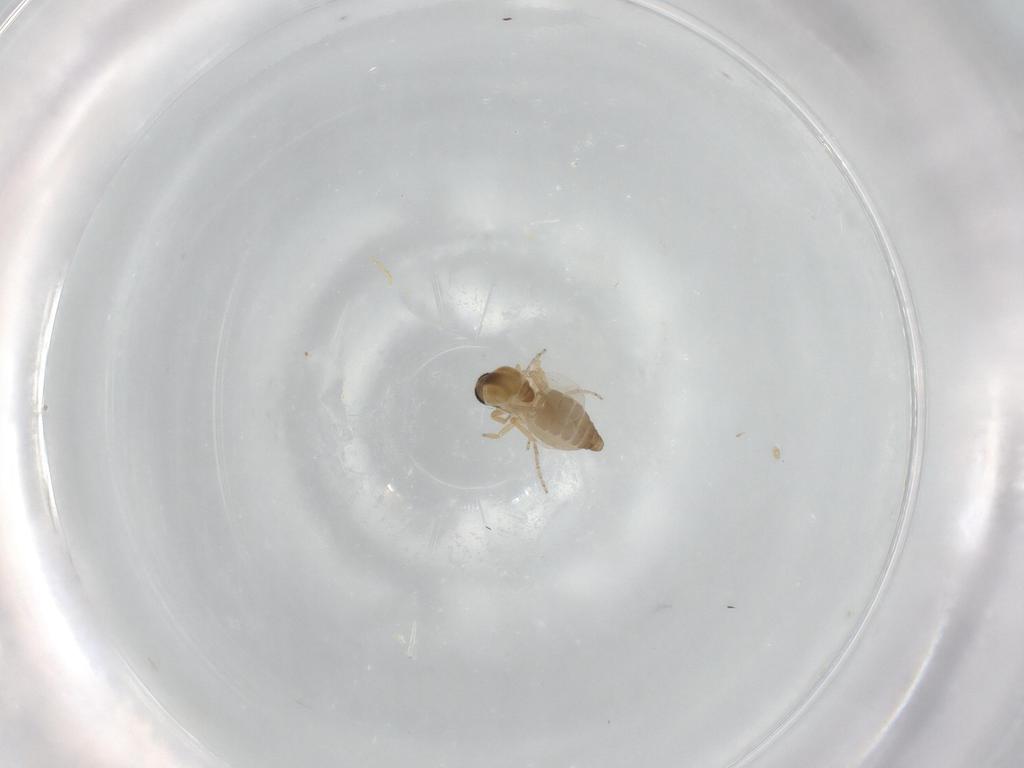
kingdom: Animalia
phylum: Arthropoda
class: Insecta
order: Diptera
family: Ceratopogonidae
